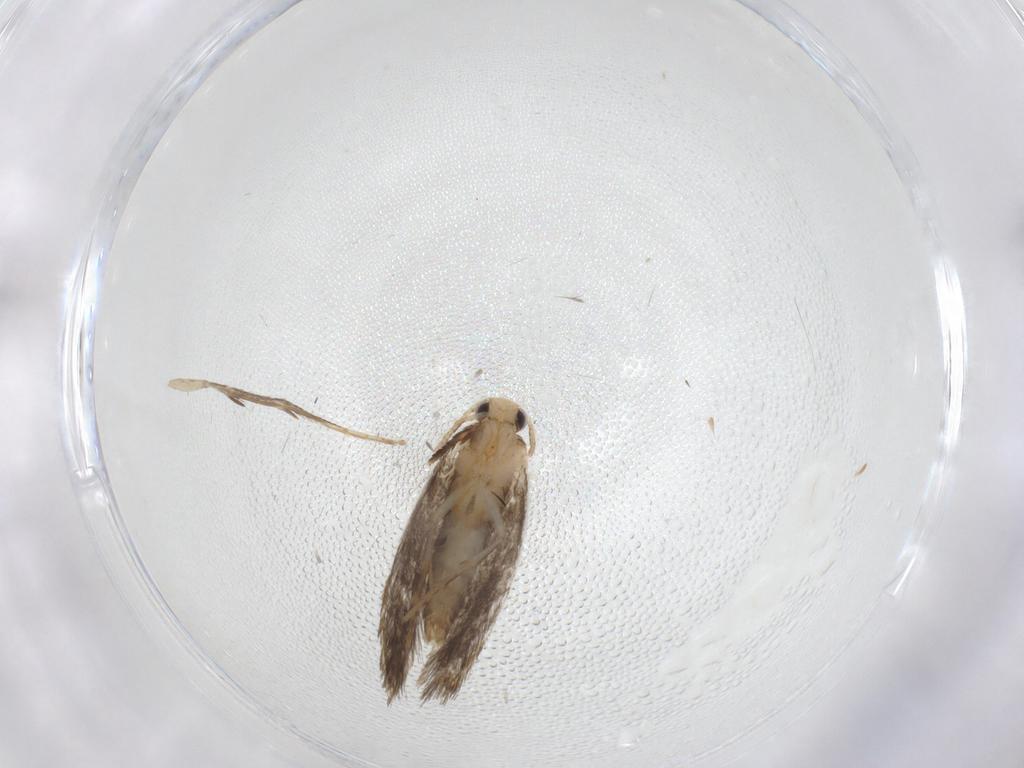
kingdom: Animalia
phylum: Arthropoda
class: Insecta
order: Lepidoptera
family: Tineidae
